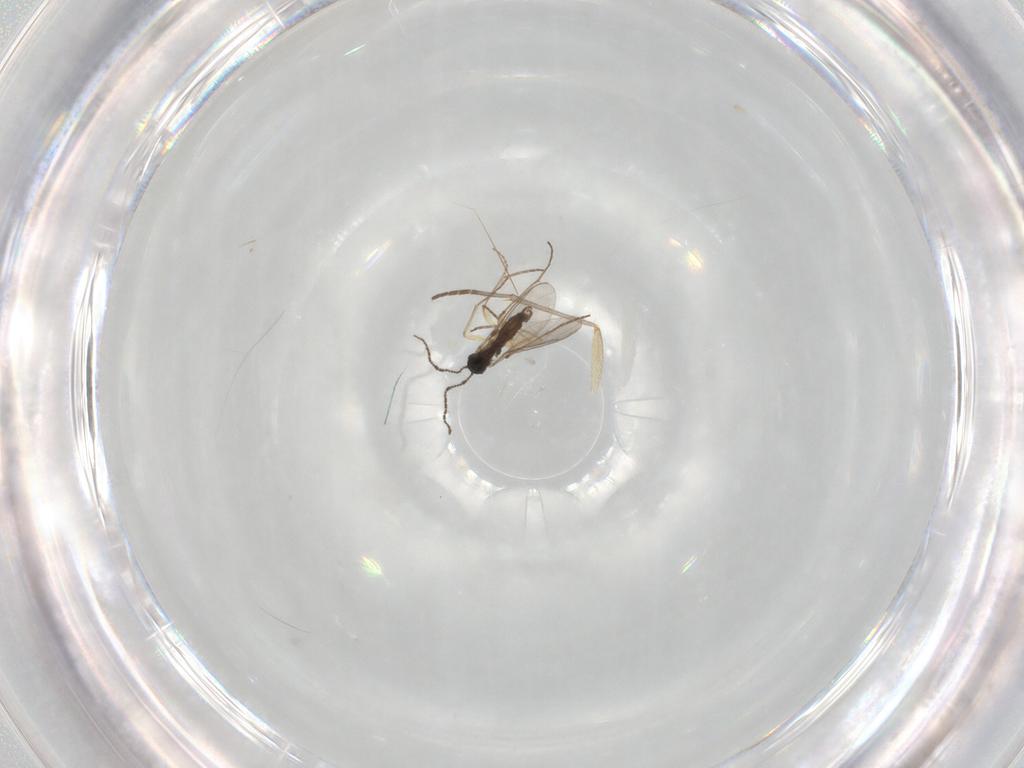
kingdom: Animalia
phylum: Arthropoda
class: Insecta
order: Diptera
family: Sciaridae
